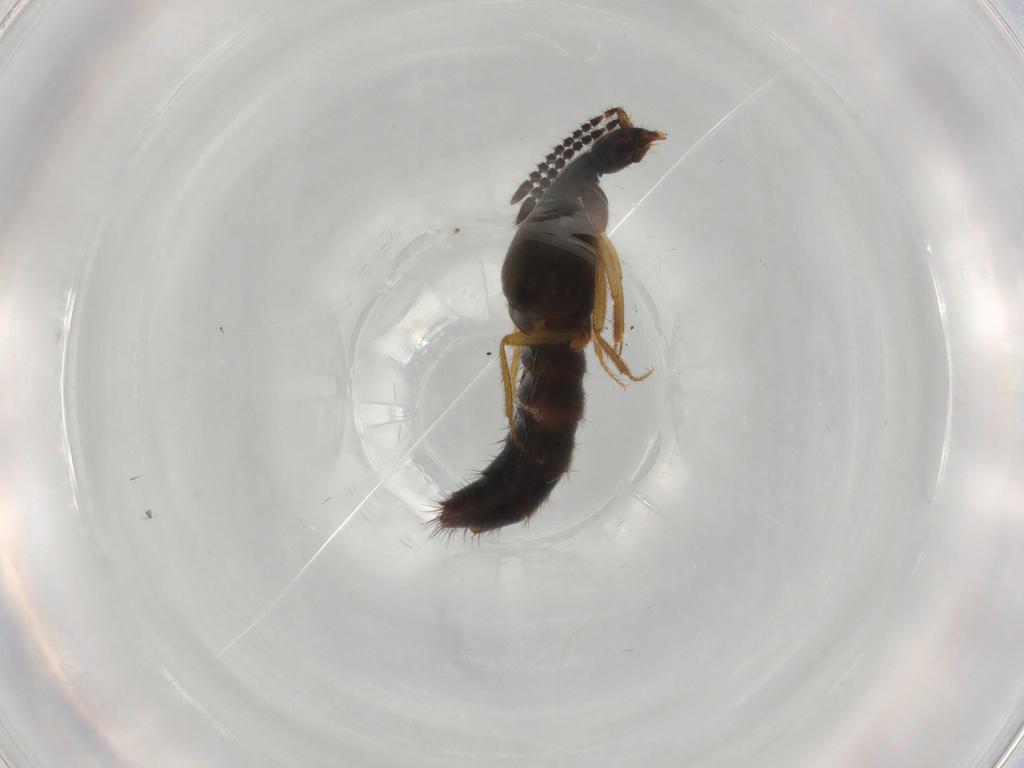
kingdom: Animalia
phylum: Arthropoda
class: Insecta
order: Coleoptera
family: Staphylinidae
